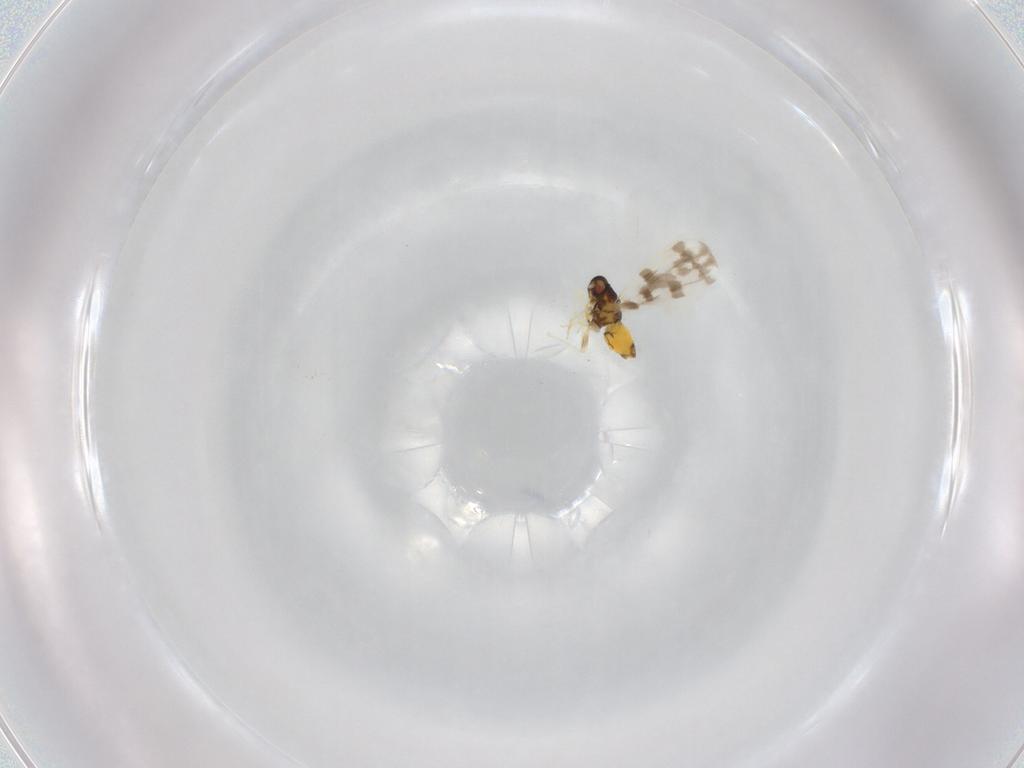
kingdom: Animalia
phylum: Arthropoda
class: Insecta
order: Hemiptera
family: Aleyrodidae
